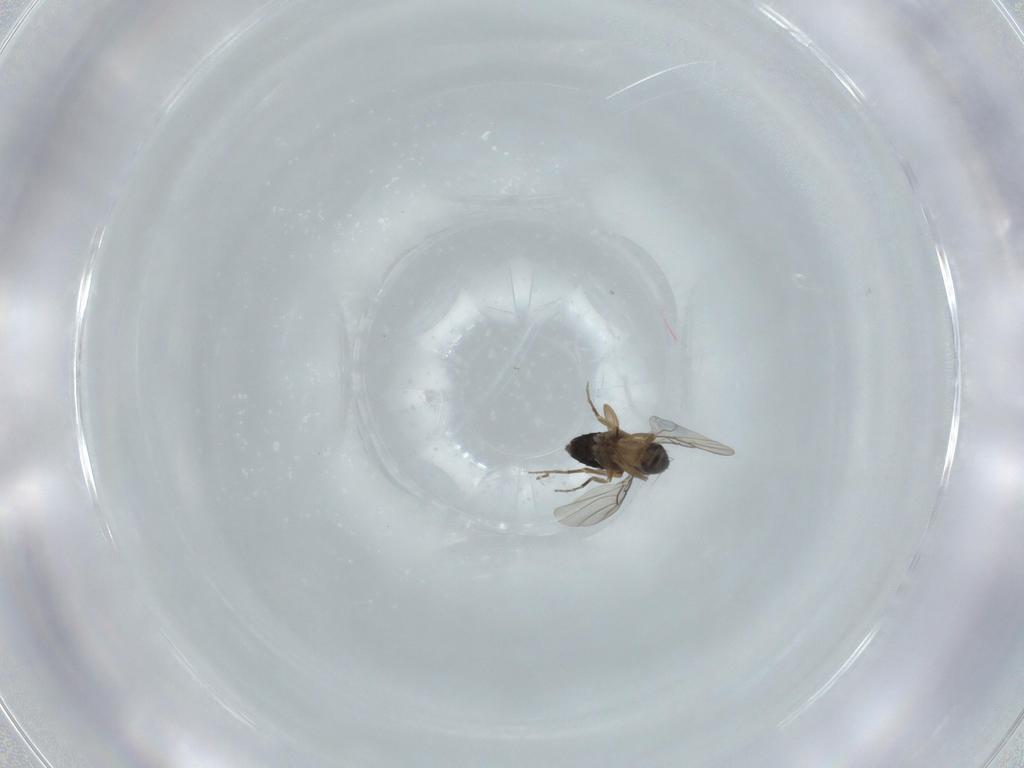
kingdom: Animalia
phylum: Arthropoda
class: Insecta
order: Diptera
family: Phoridae
